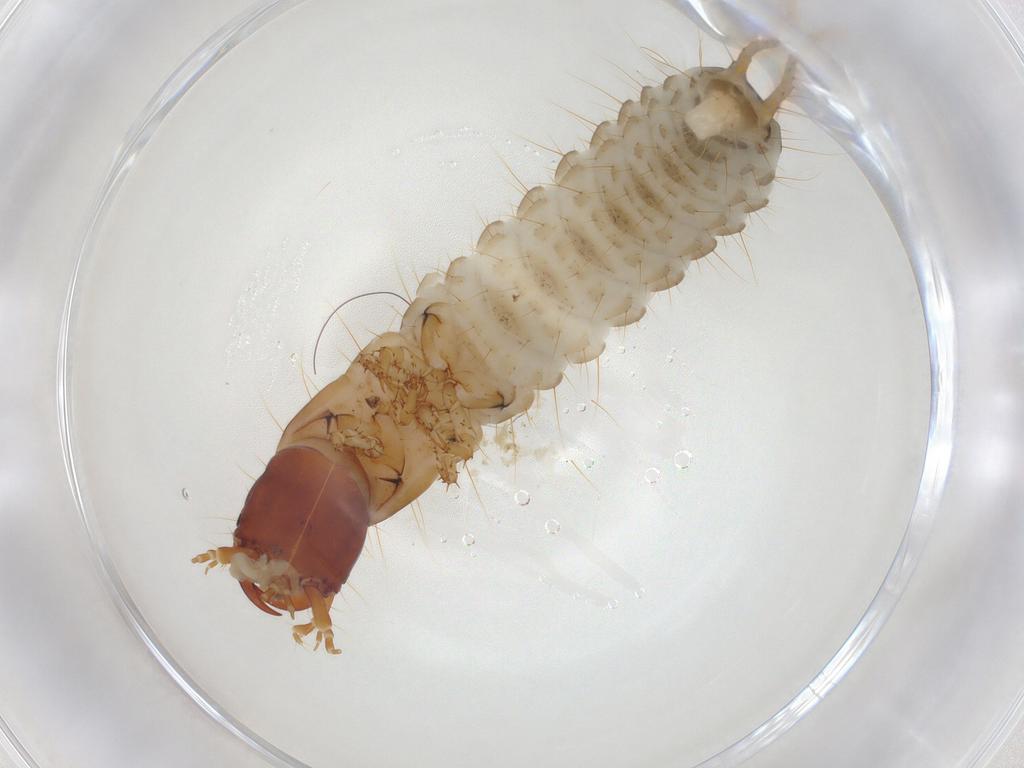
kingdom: Animalia
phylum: Arthropoda
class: Insecta
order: Coleoptera
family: Carabidae
